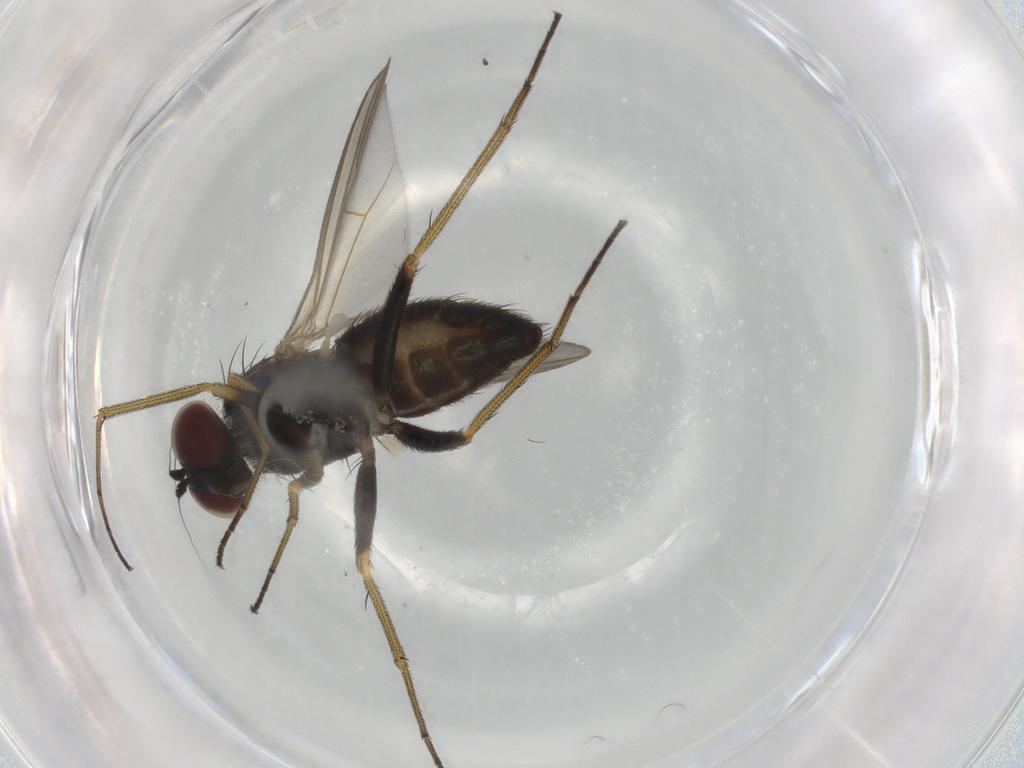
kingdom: Animalia
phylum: Arthropoda
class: Insecta
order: Diptera
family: Dolichopodidae
